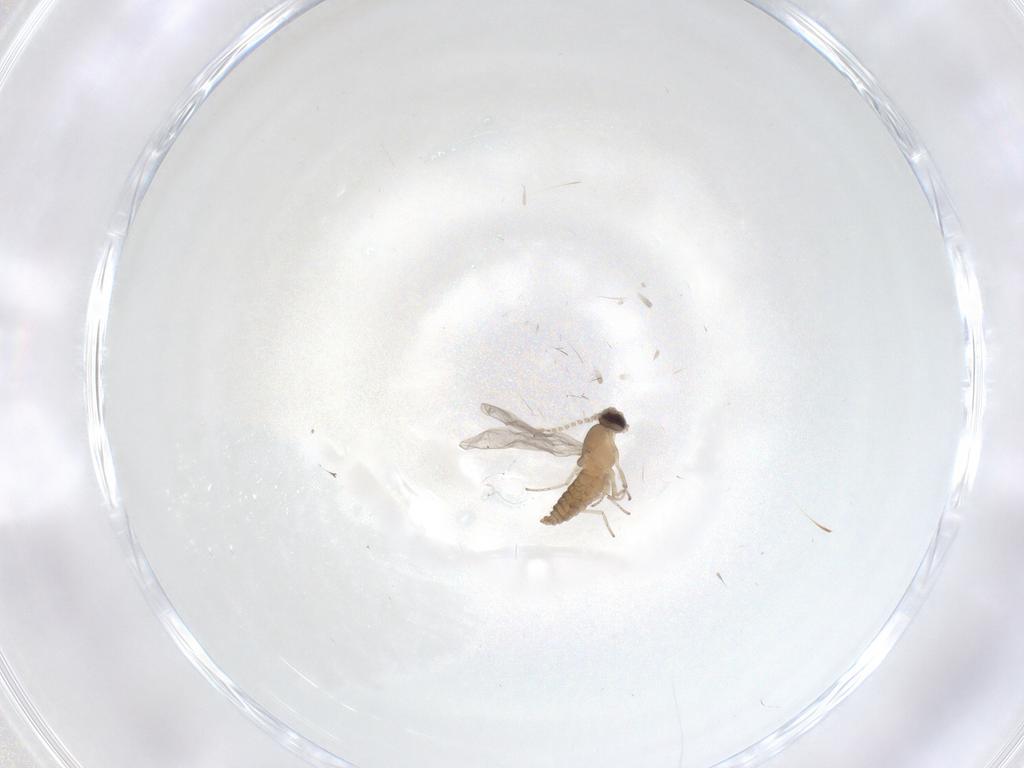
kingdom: Animalia
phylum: Arthropoda
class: Insecta
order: Diptera
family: Cecidomyiidae
